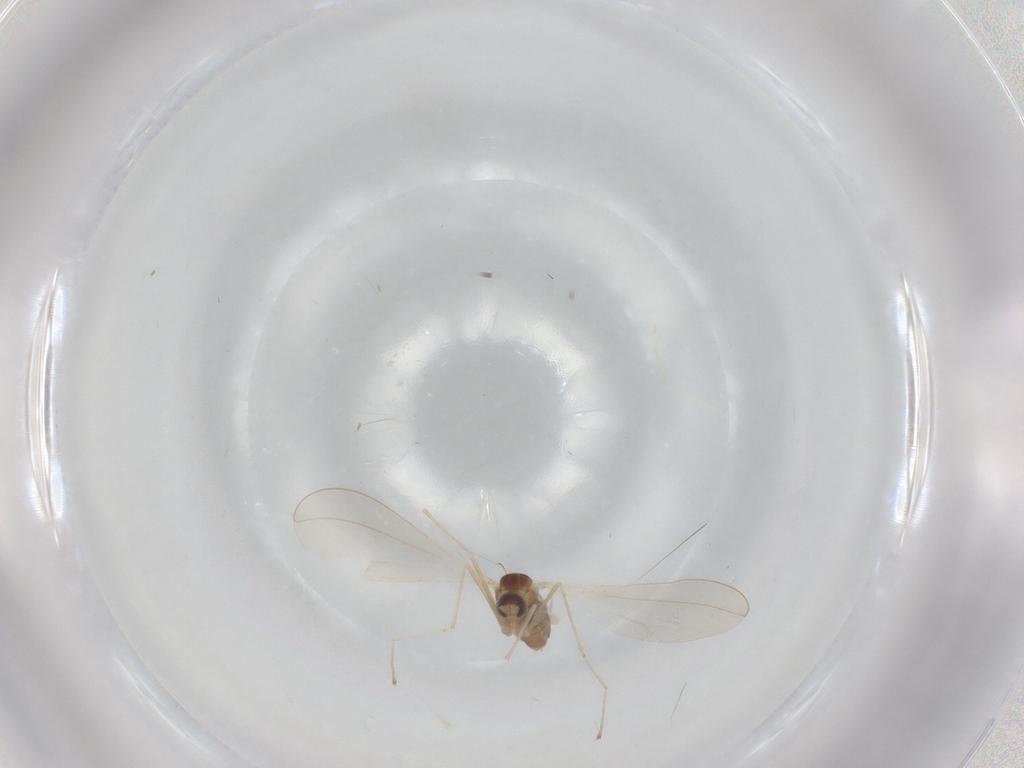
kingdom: Animalia
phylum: Arthropoda
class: Insecta
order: Diptera
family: Cecidomyiidae
